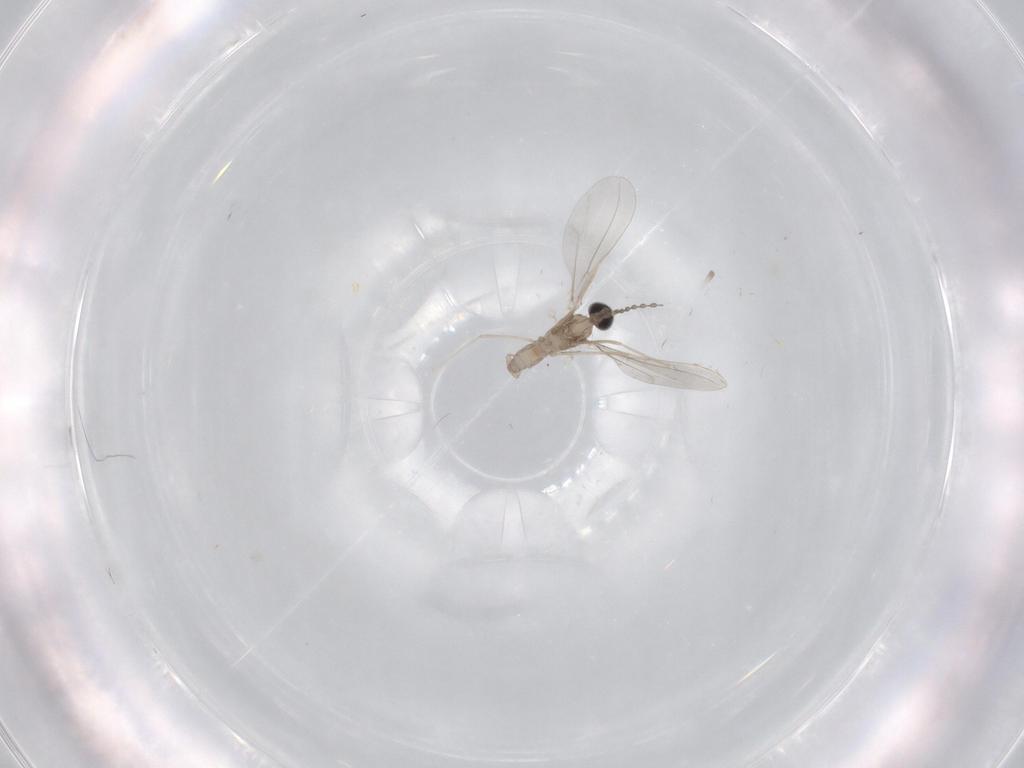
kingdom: Animalia
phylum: Arthropoda
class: Insecta
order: Diptera
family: Cecidomyiidae
